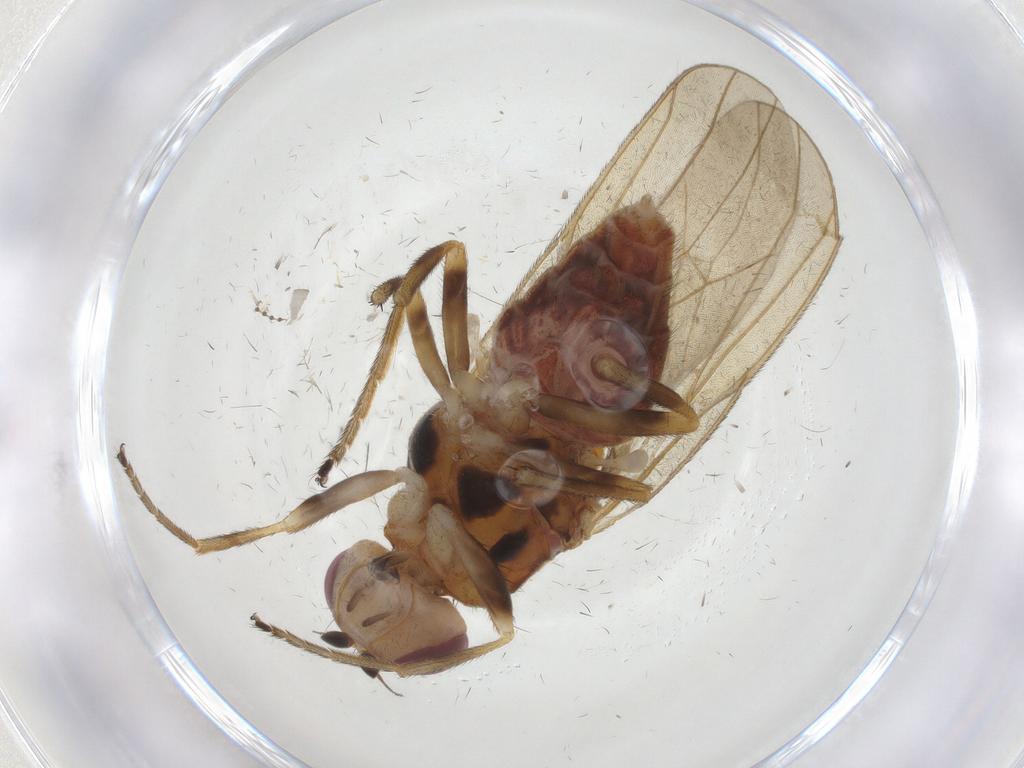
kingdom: Animalia
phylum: Arthropoda
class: Insecta
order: Diptera
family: Chloropidae
